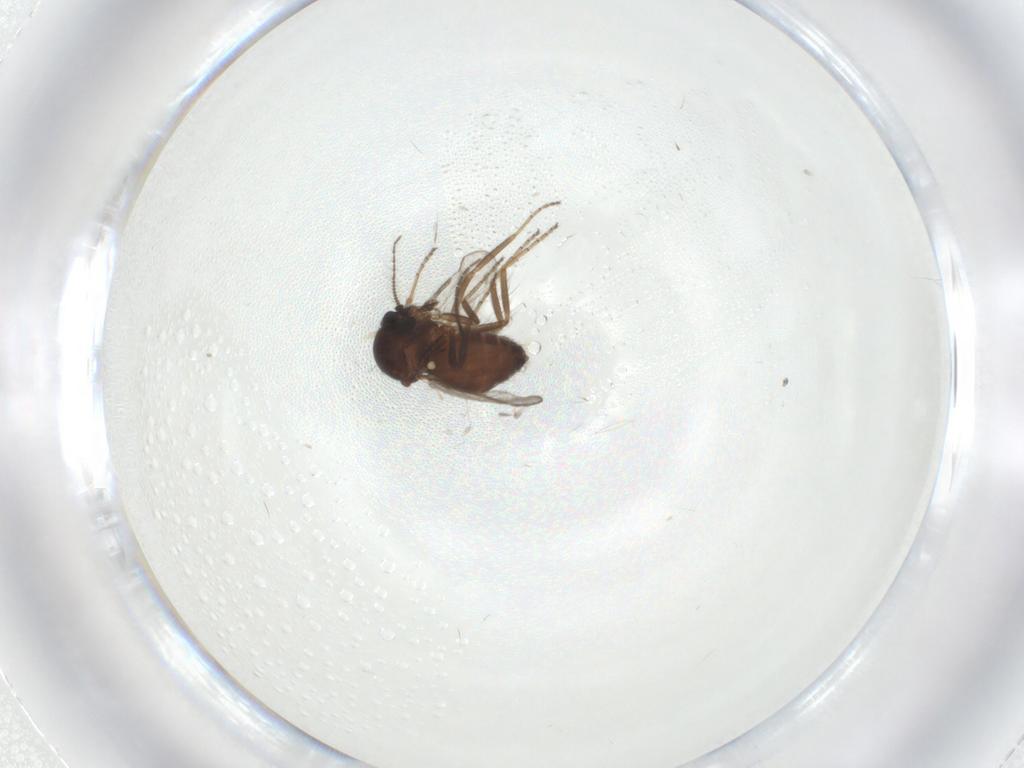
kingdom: Animalia
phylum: Arthropoda
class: Insecta
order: Diptera
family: Ceratopogonidae
